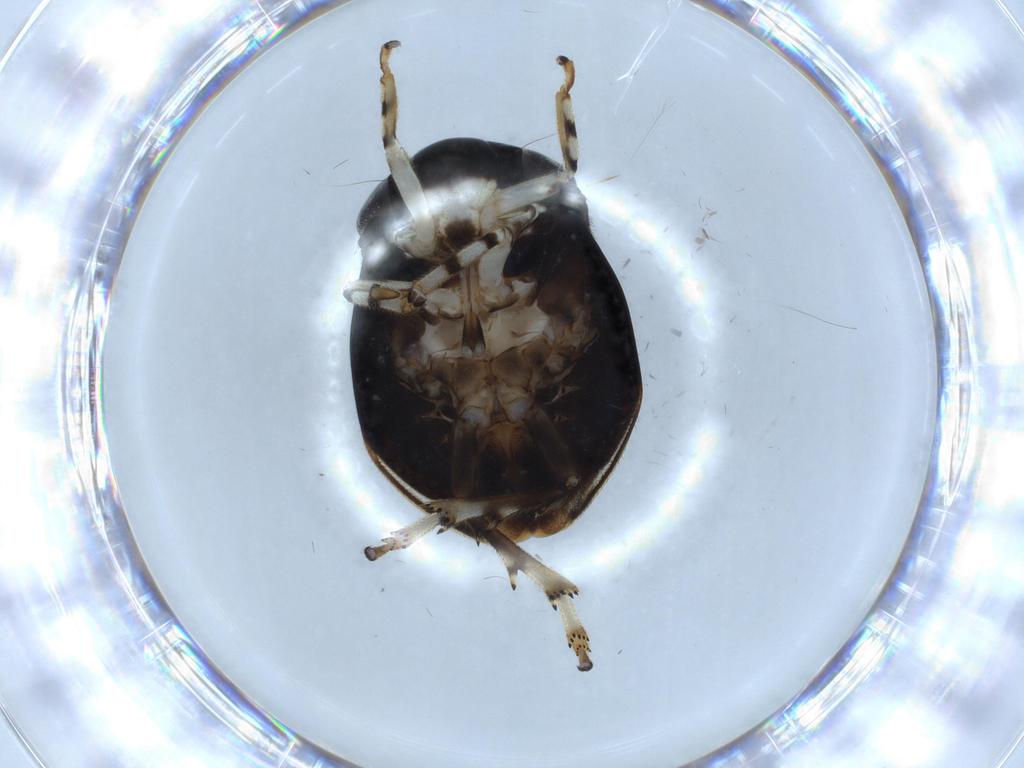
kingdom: Animalia
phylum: Arthropoda
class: Insecta
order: Hemiptera
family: Clastopteridae
